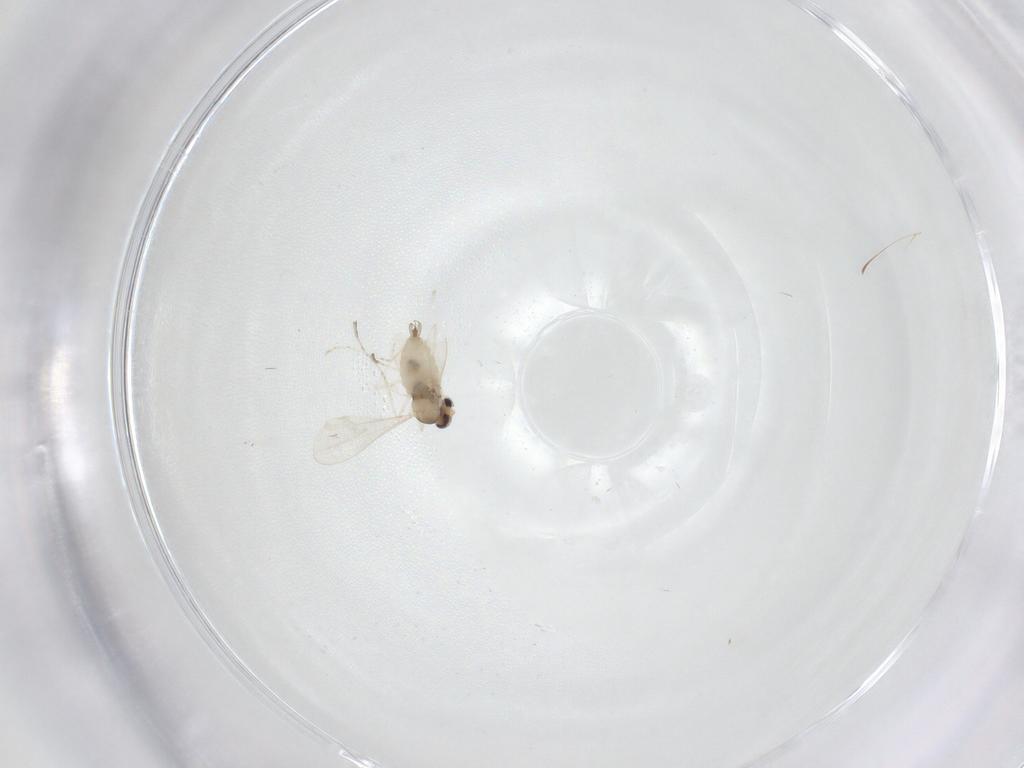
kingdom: Animalia
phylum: Arthropoda
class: Insecta
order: Diptera
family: Cecidomyiidae
